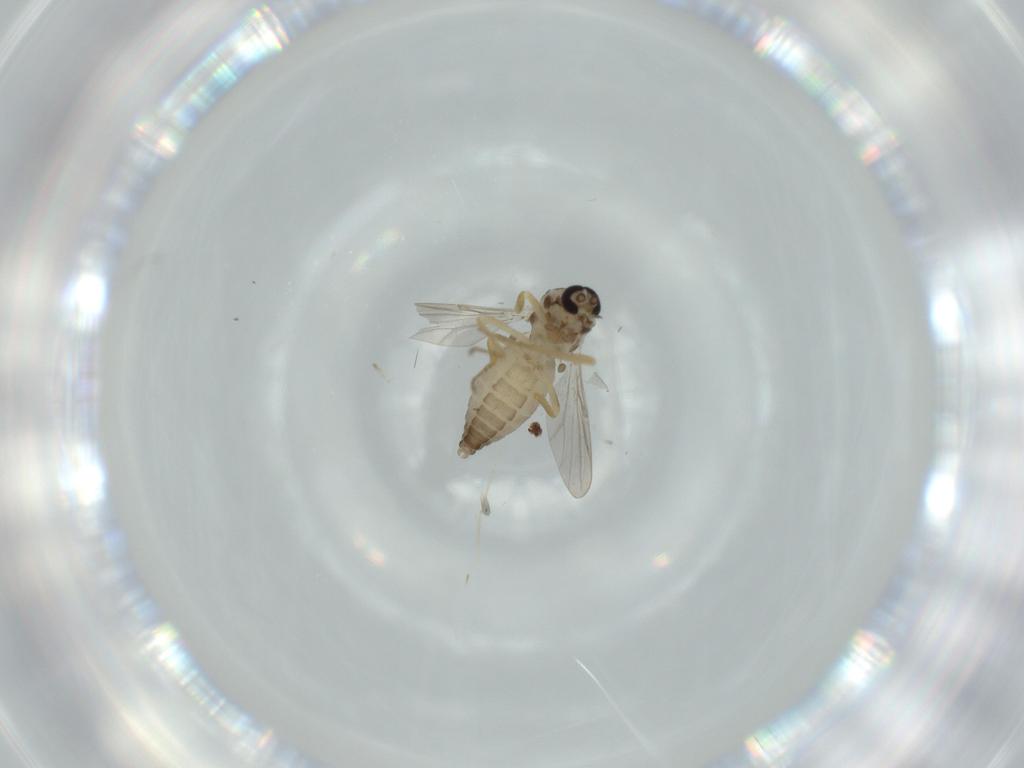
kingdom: Animalia
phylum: Arthropoda
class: Insecta
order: Diptera
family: Ceratopogonidae
